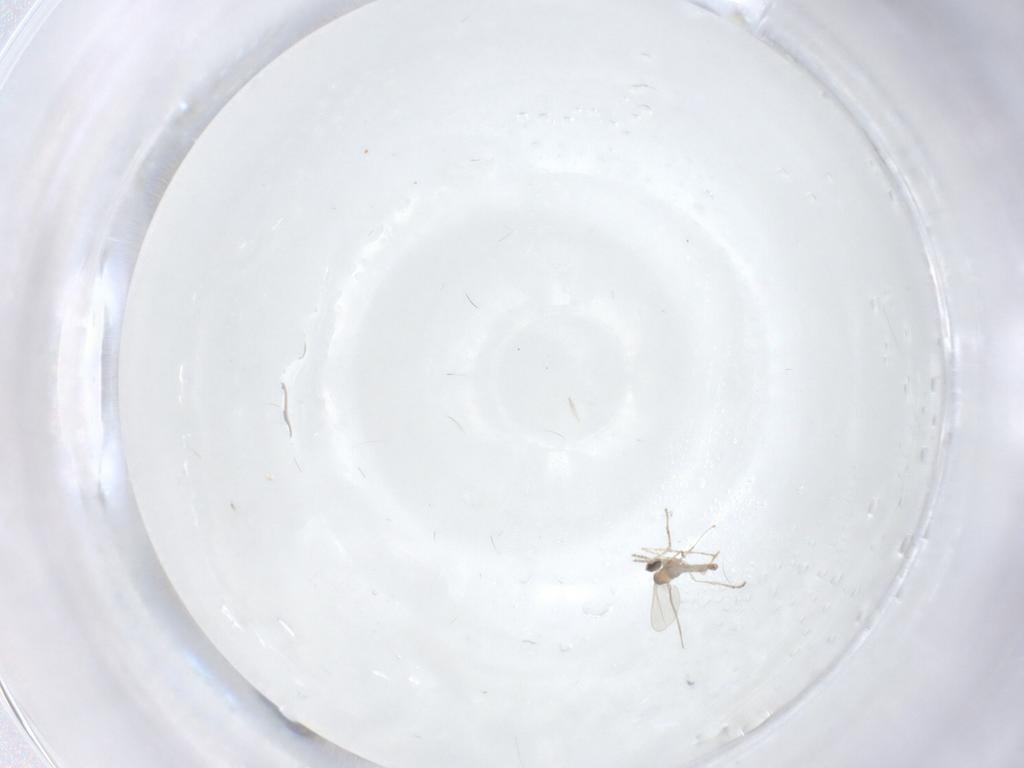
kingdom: Animalia
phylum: Arthropoda
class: Insecta
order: Diptera
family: Cecidomyiidae
